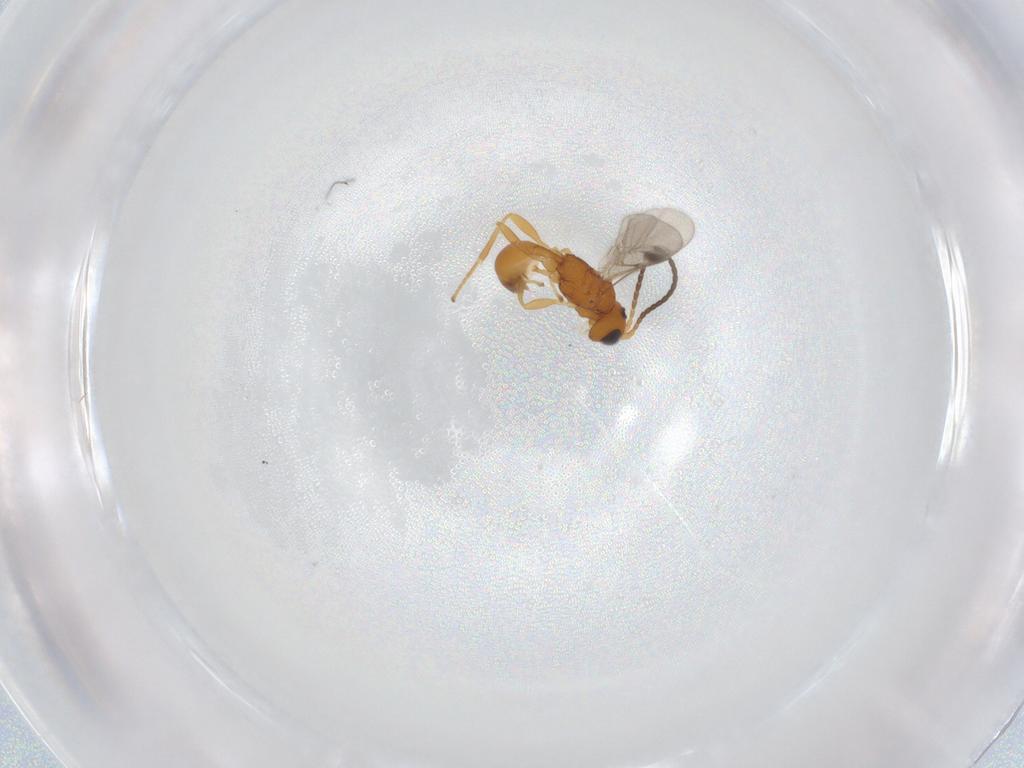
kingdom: Animalia
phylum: Arthropoda
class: Insecta
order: Hymenoptera
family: Braconidae
